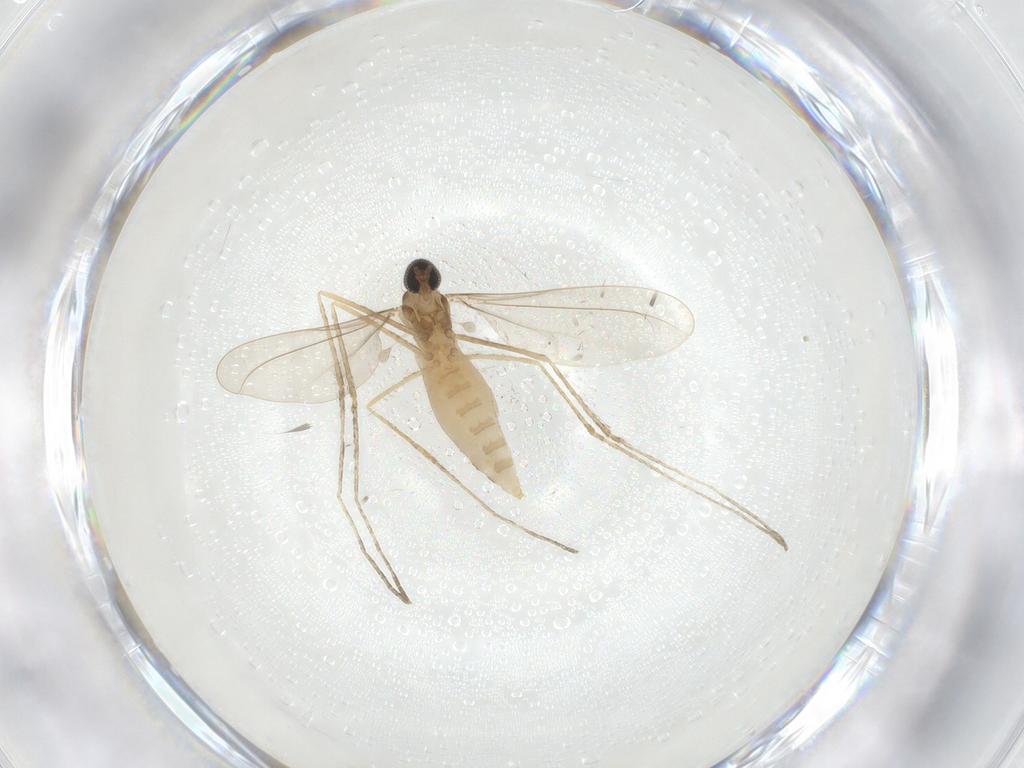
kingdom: Animalia
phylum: Arthropoda
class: Insecta
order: Diptera
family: Cecidomyiidae
